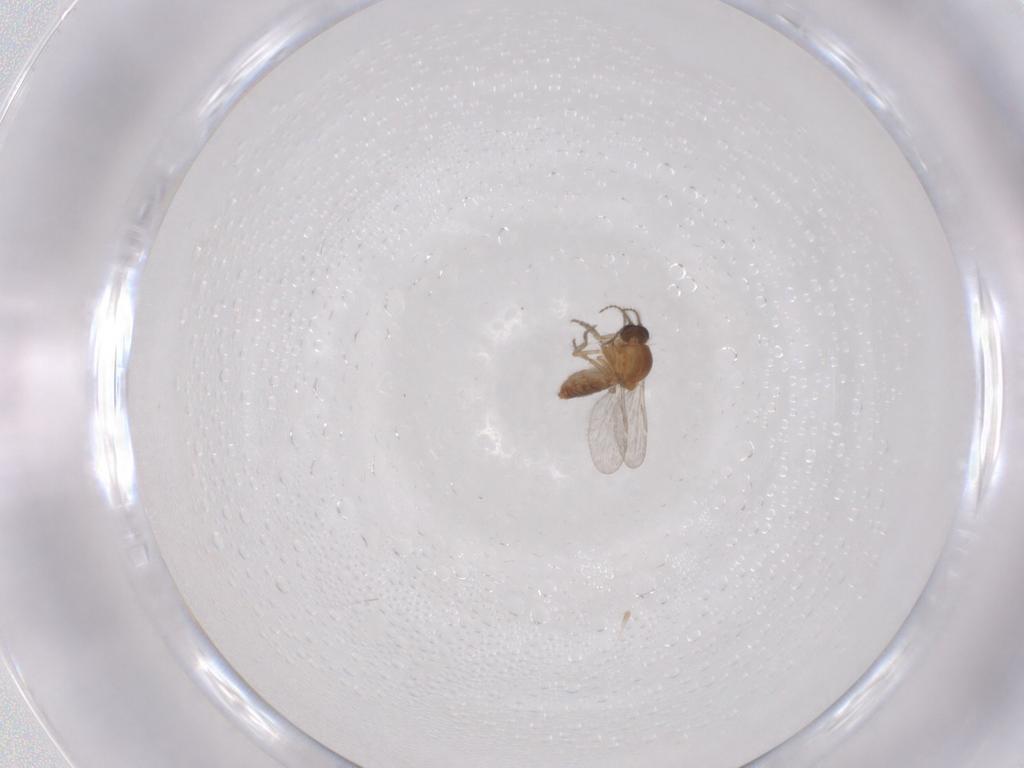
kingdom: Animalia
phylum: Arthropoda
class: Insecta
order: Diptera
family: Ceratopogonidae
